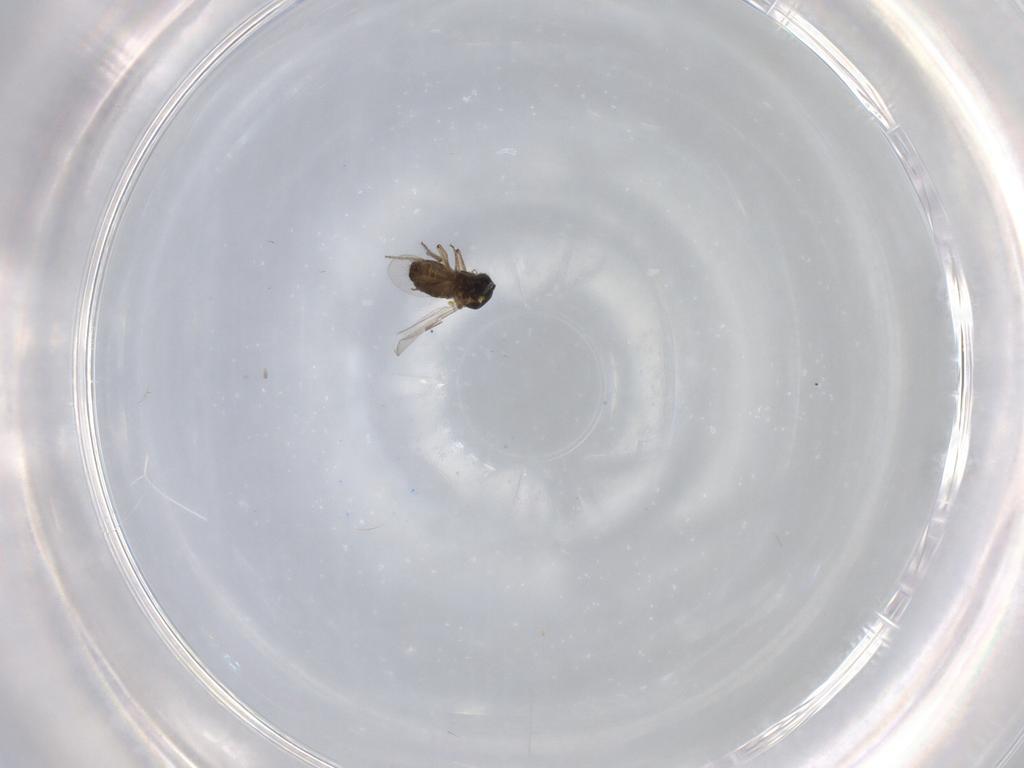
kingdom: Animalia
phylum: Arthropoda
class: Insecta
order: Diptera
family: Ceratopogonidae
